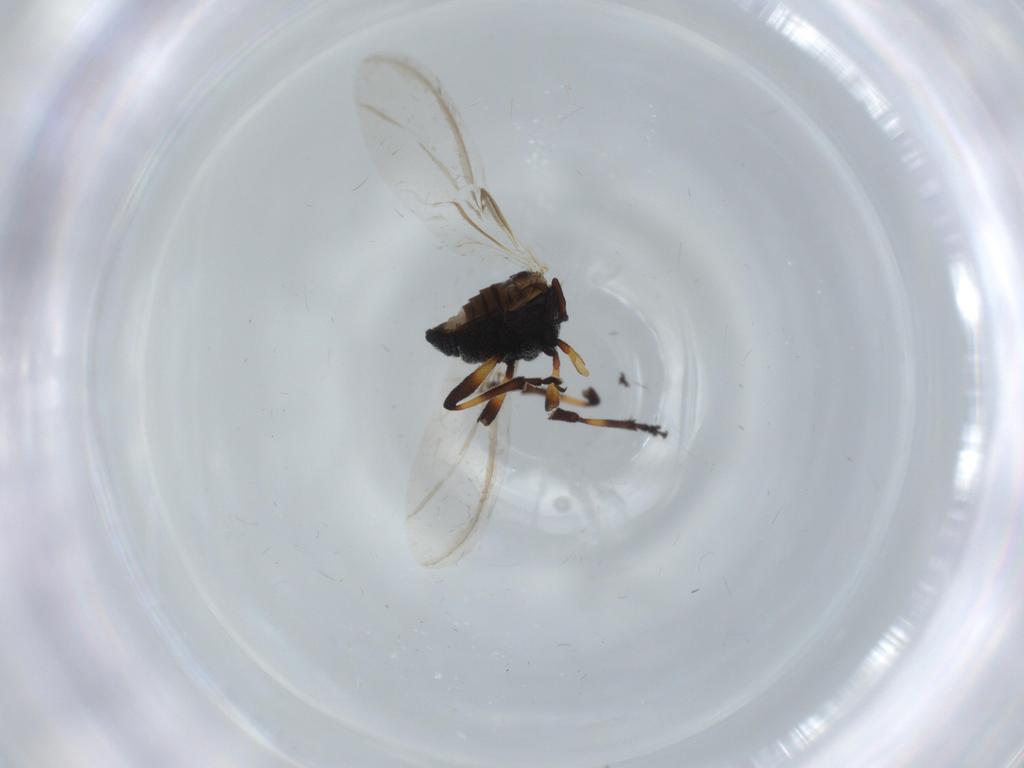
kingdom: Animalia
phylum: Arthropoda
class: Insecta
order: Coleoptera
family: Brentidae
